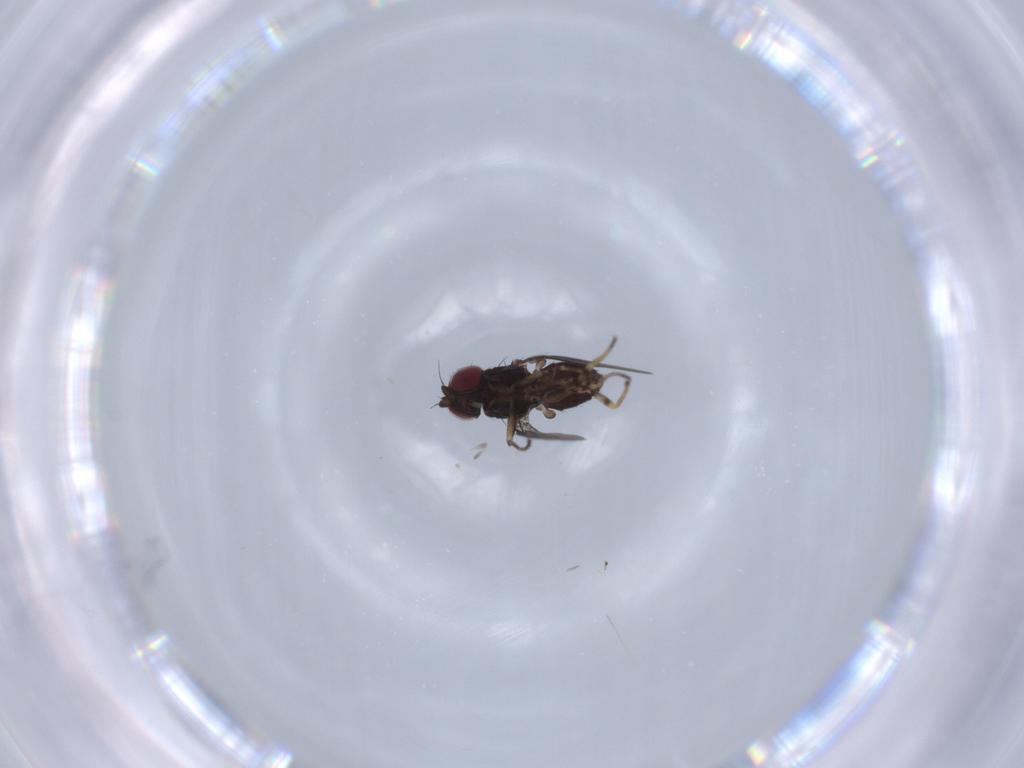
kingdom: Animalia
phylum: Arthropoda
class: Insecta
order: Diptera
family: Chloropidae
